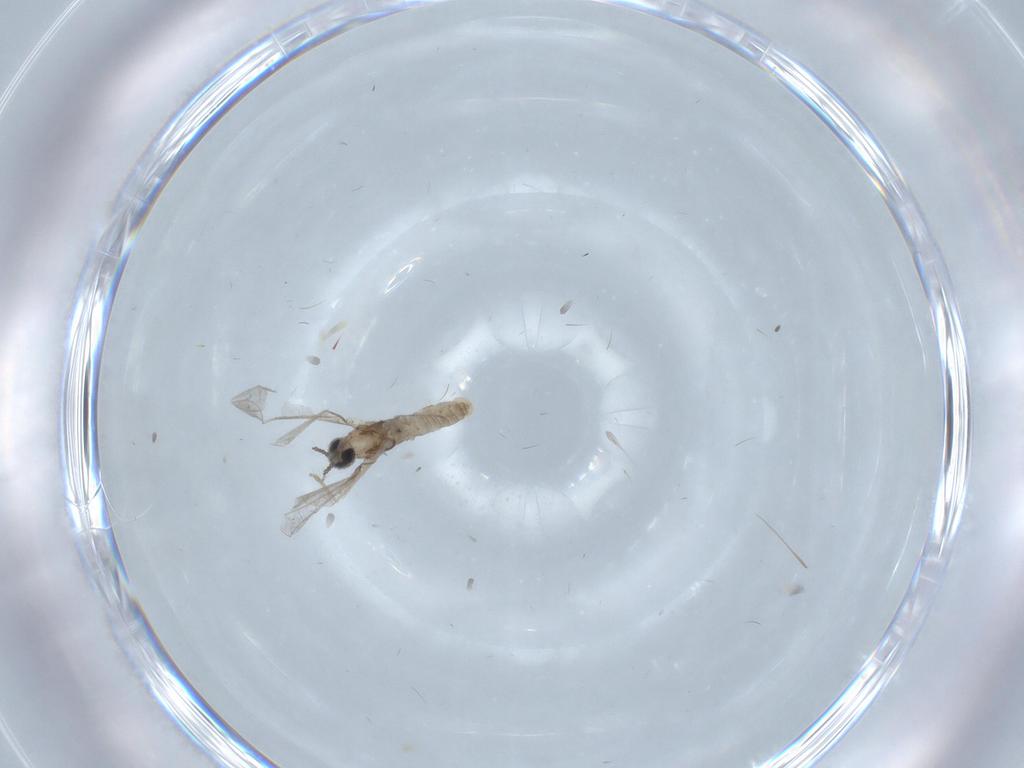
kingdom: Animalia
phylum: Arthropoda
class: Insecta
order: Diptera
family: Cecidomyiidae
